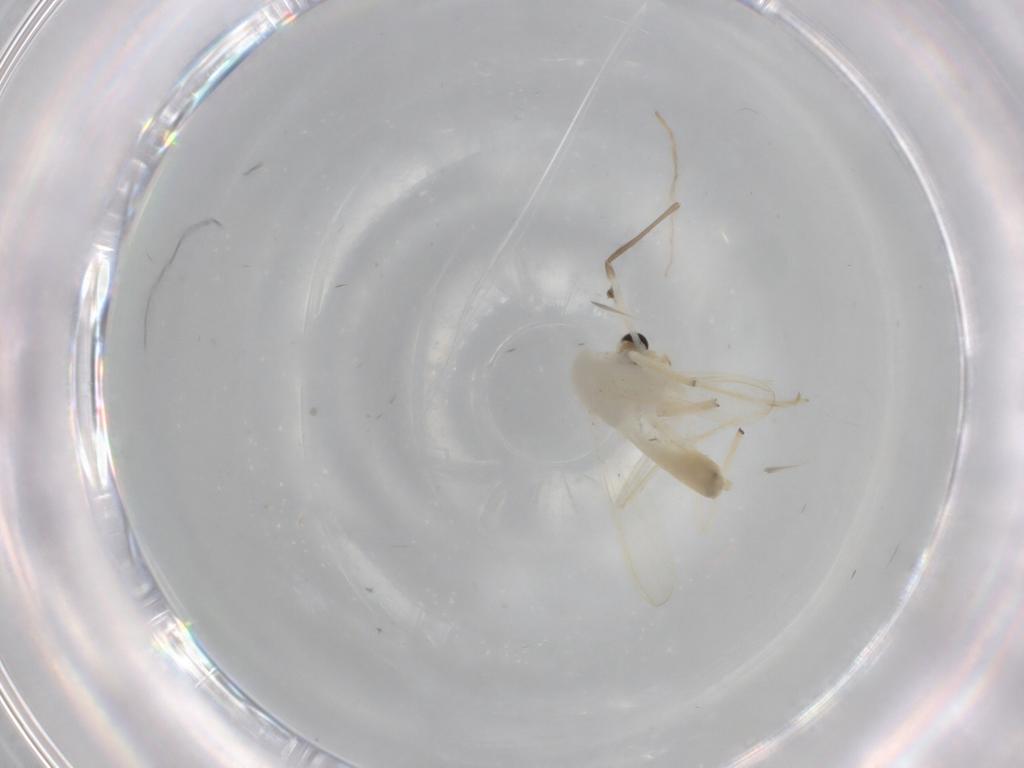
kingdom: Animalia
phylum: Arthropoda
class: Insecta
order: Diptera
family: Chironomidae
